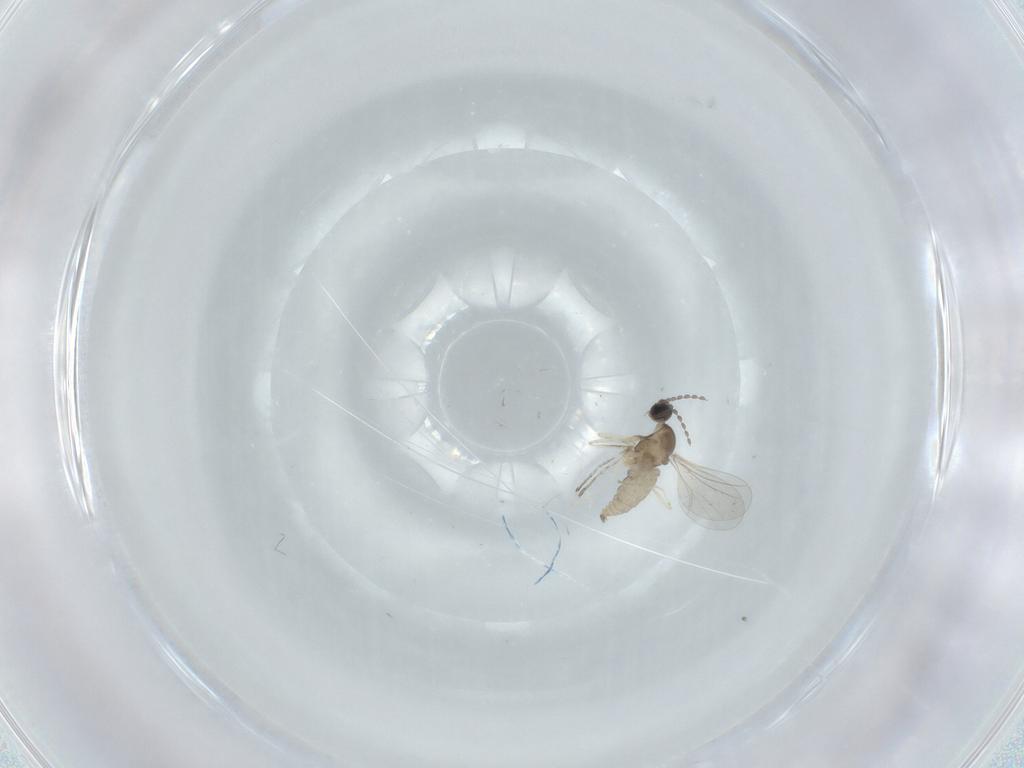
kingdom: Animalia
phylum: Arthropoda
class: Insecta
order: Diptera
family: Cecidomyiidae
